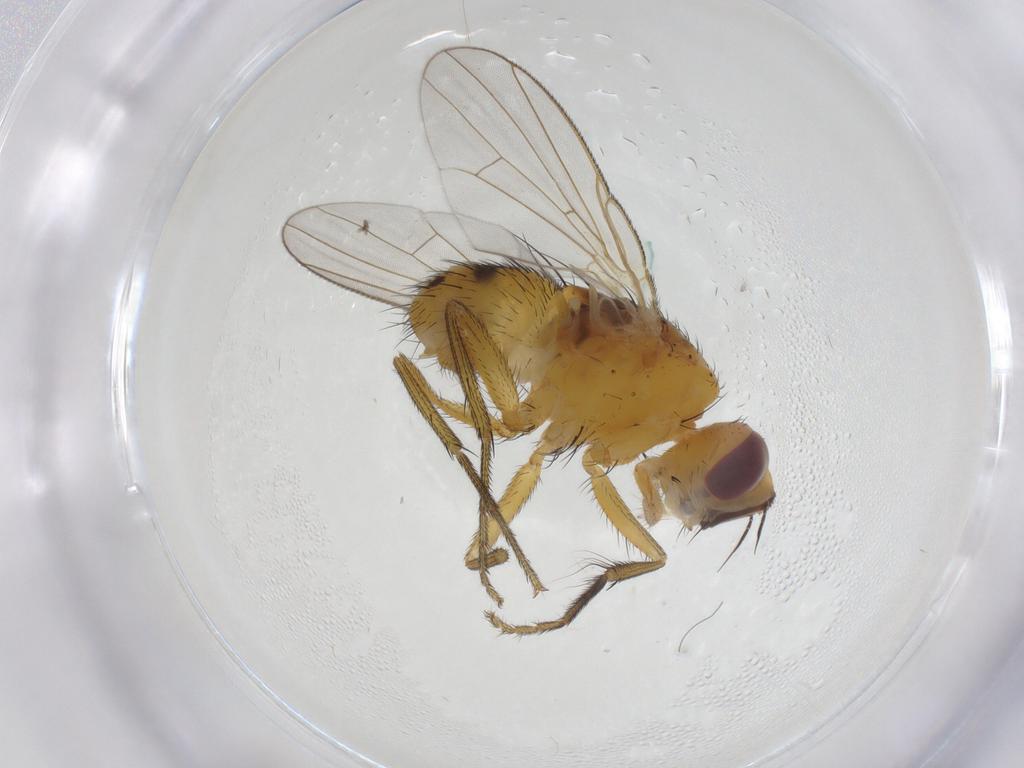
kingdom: Animalia
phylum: Arthropoda
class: Insecta
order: Diptera
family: Muscidae
